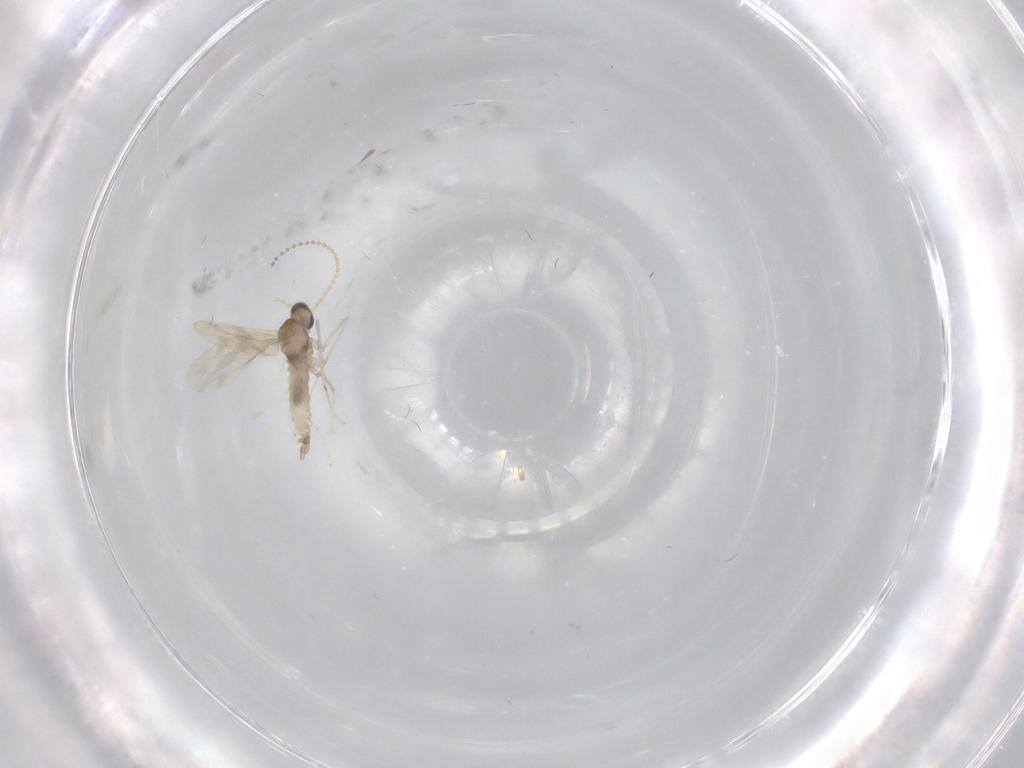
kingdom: Animalia
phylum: Arthropoda
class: Insecta
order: Diptera
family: Cecidomyiidae
